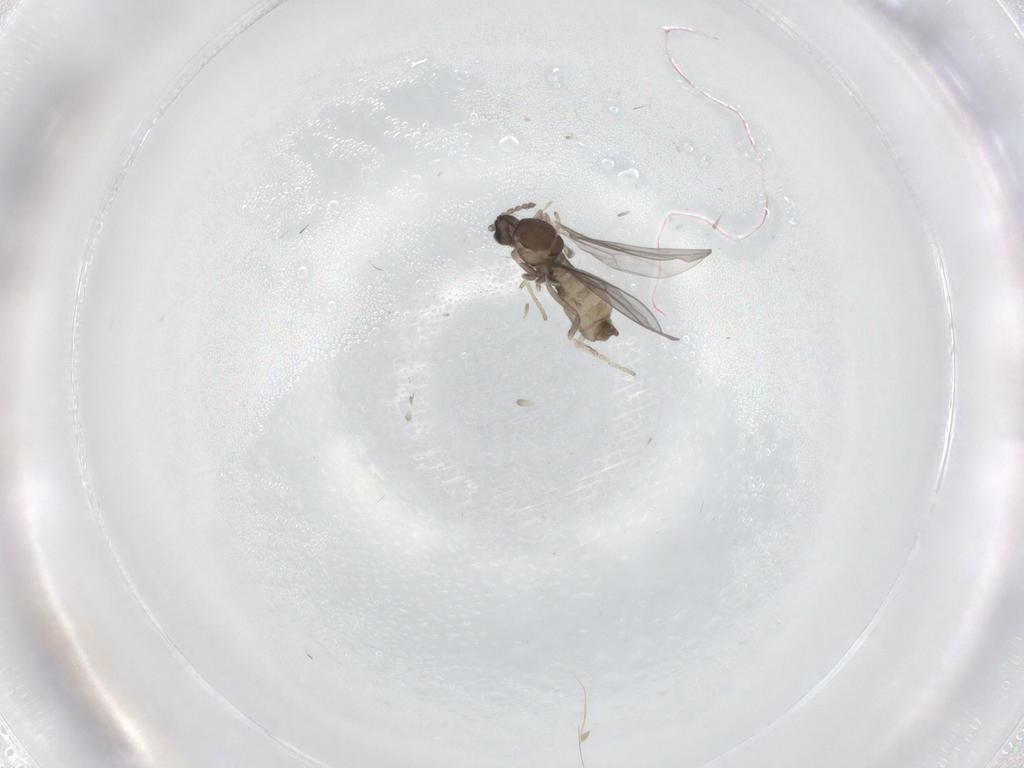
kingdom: Animalia
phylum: Arthropoda
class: Insecta
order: Diptera
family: Cecidomyiidae
